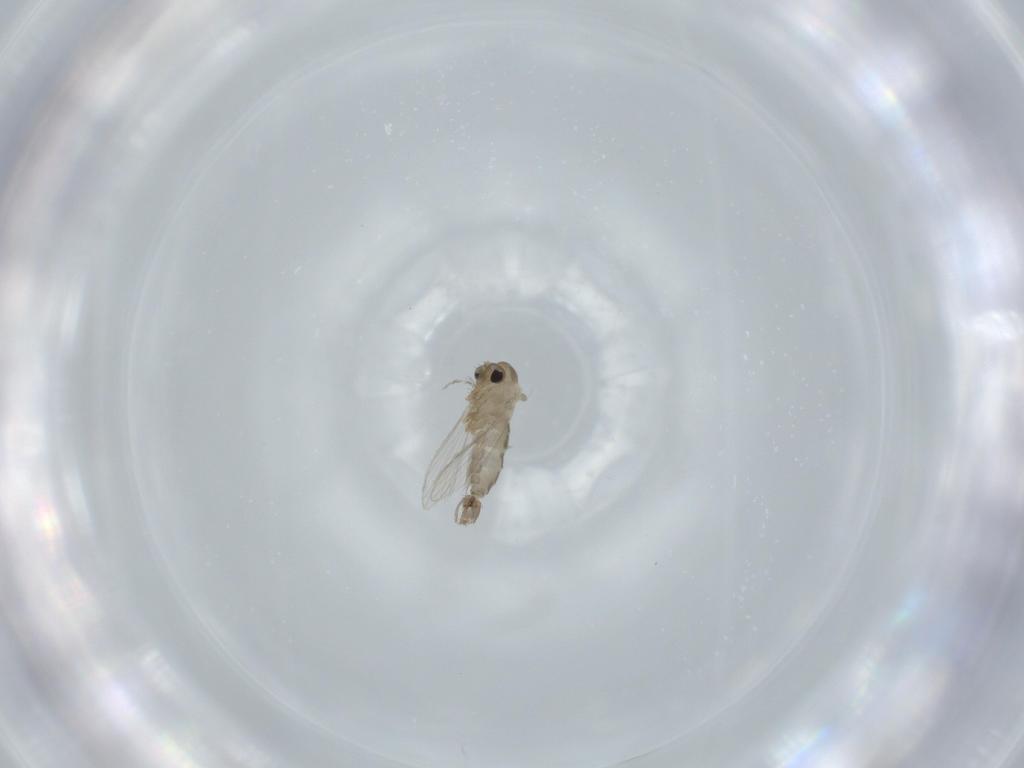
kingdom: Animalia
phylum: Arthropoda
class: Insecta
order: Diptera
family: Psychodidae
